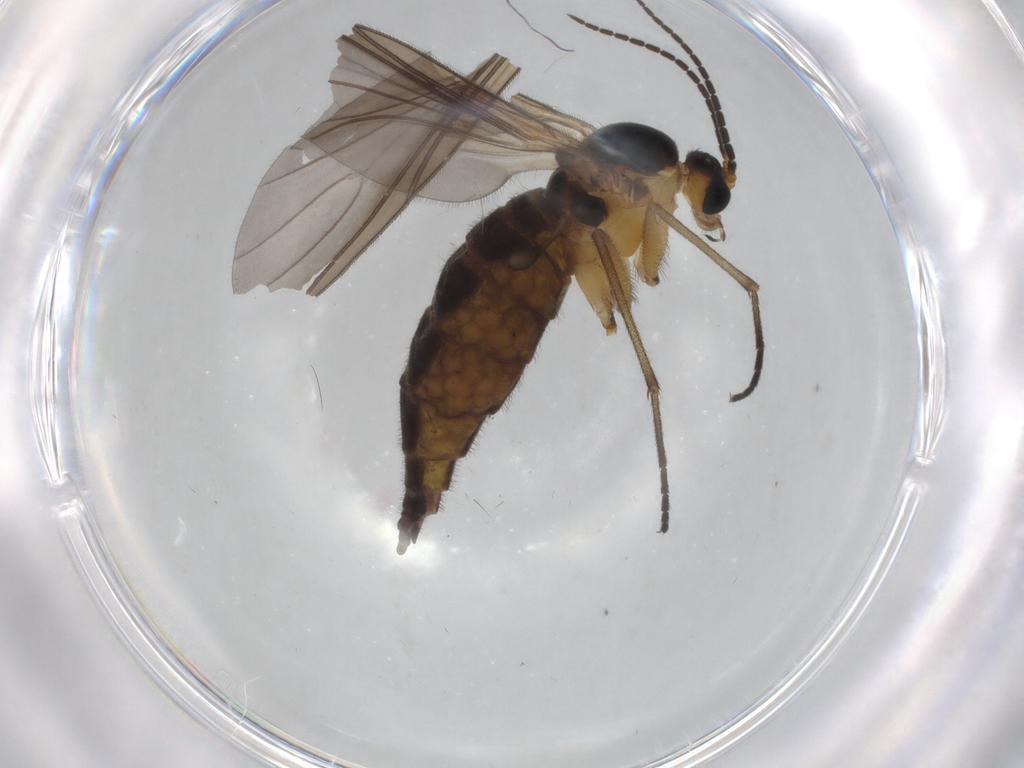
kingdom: Animalia
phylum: Arthropoda
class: Insecta
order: Diptera
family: Sciaridae
